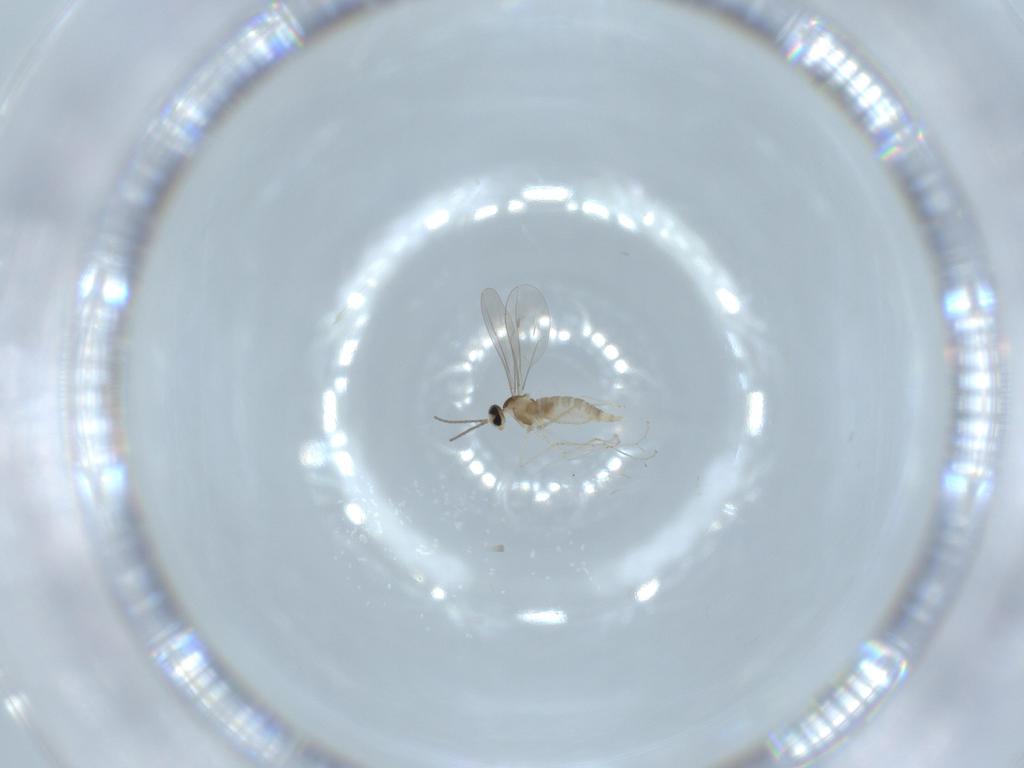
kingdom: Animalia
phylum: Arthropoda
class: Insecta
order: Diptera
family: Cecidomyiidae
